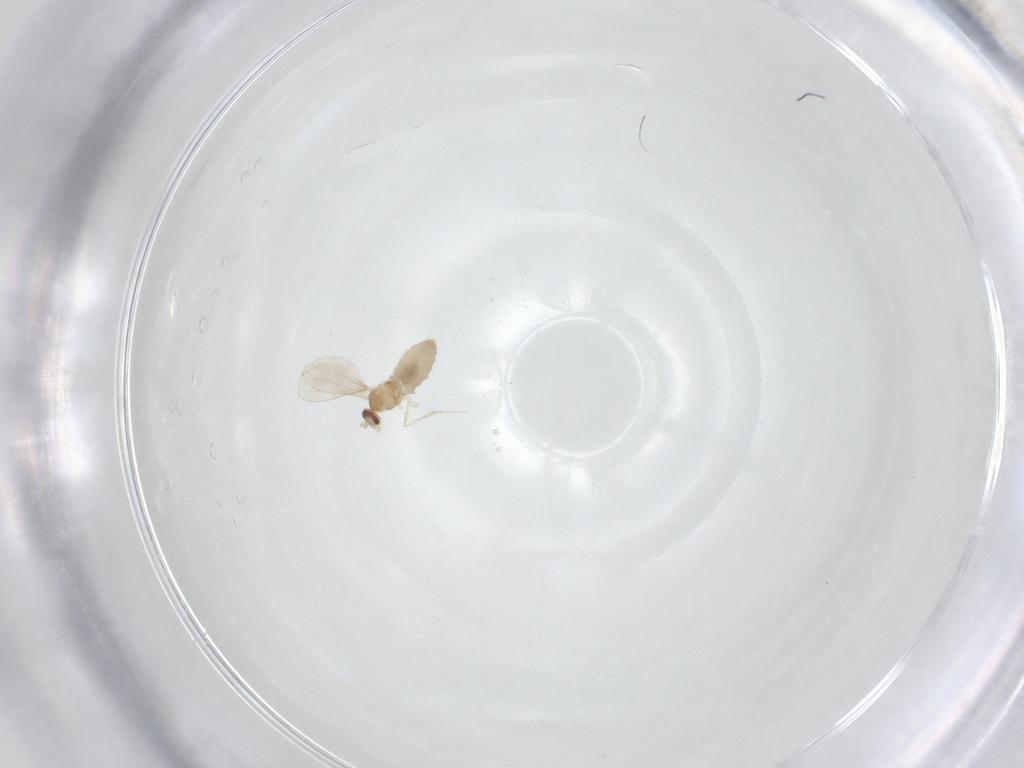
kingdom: Animalia
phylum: Arthropoda
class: Insecta
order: Diptera
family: Cecidomyiidae
